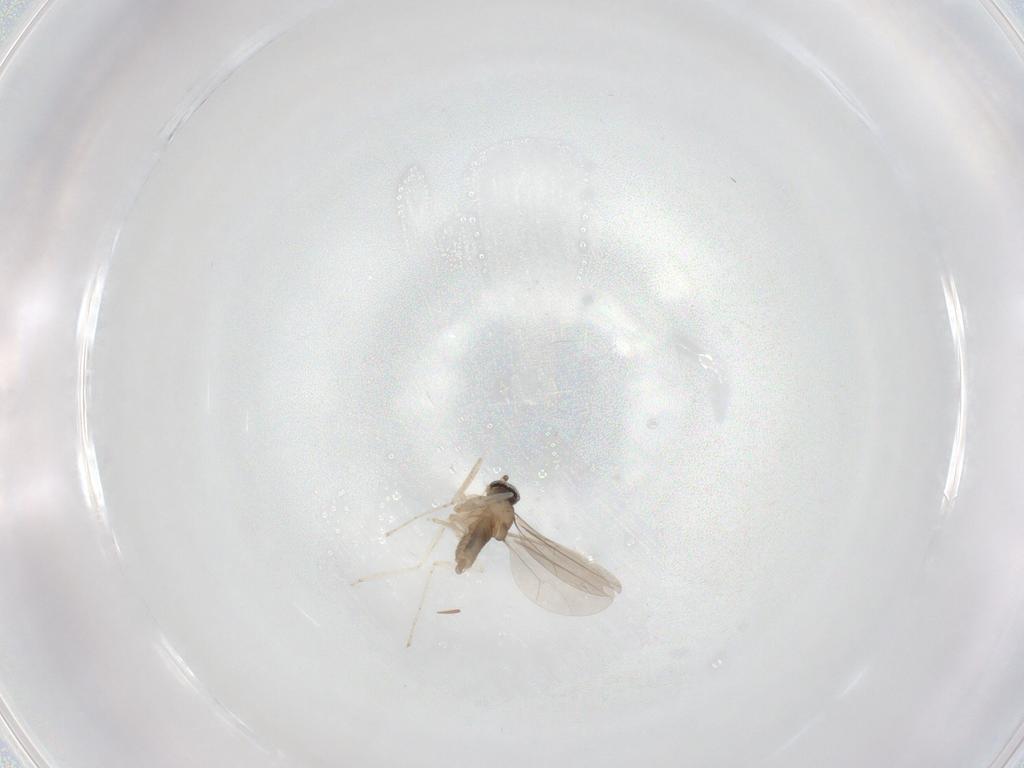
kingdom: Animalia
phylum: Arthropoda
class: Insecta
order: Diptera
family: Cecidomyiidae
